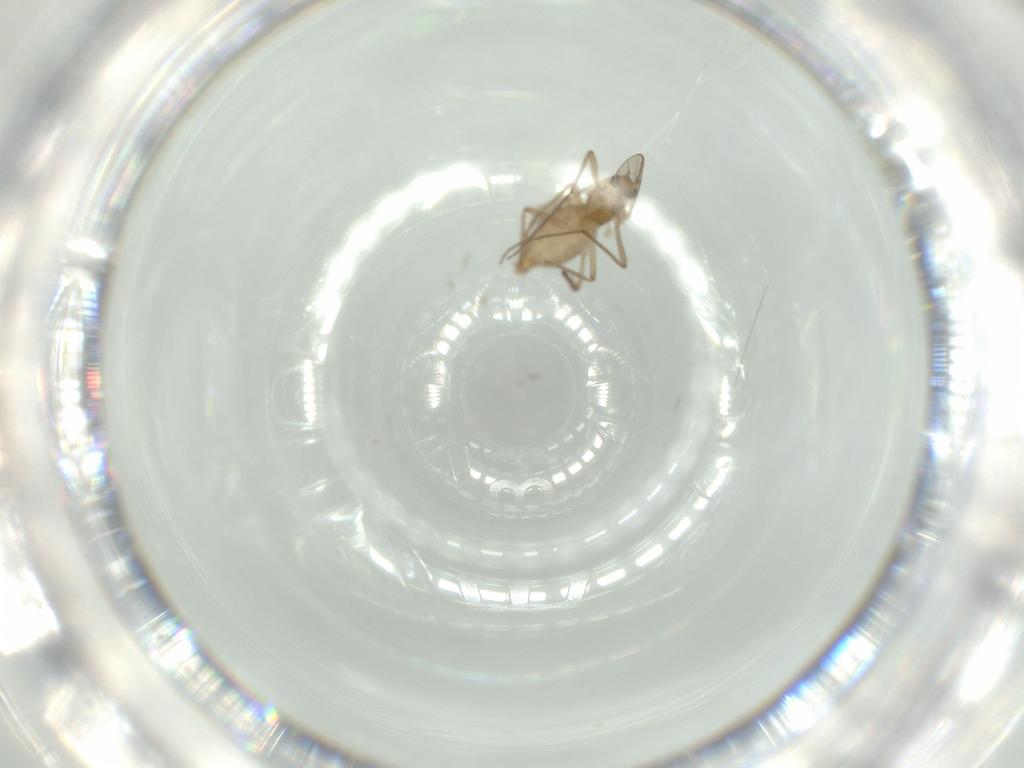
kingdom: Animalia
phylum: Arthropoda
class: Insecta
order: Diptera
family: Chironomidae
